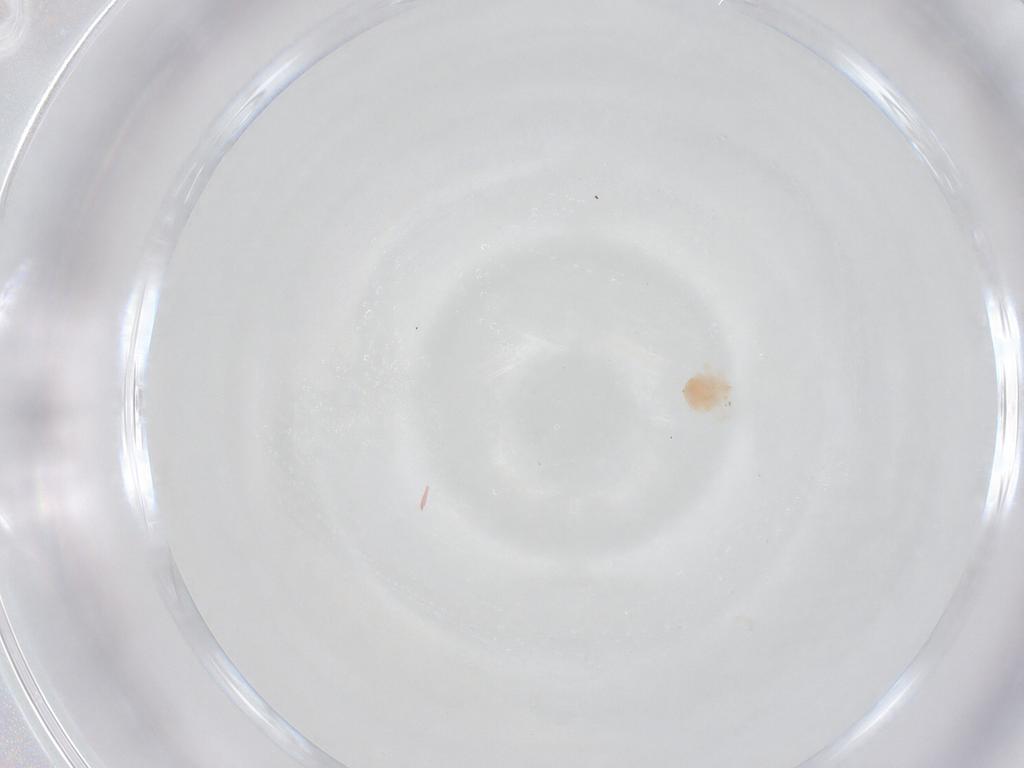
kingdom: Animalia
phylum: Arthropoda
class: Arachnida
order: Trombidiformes
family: Anystidae
